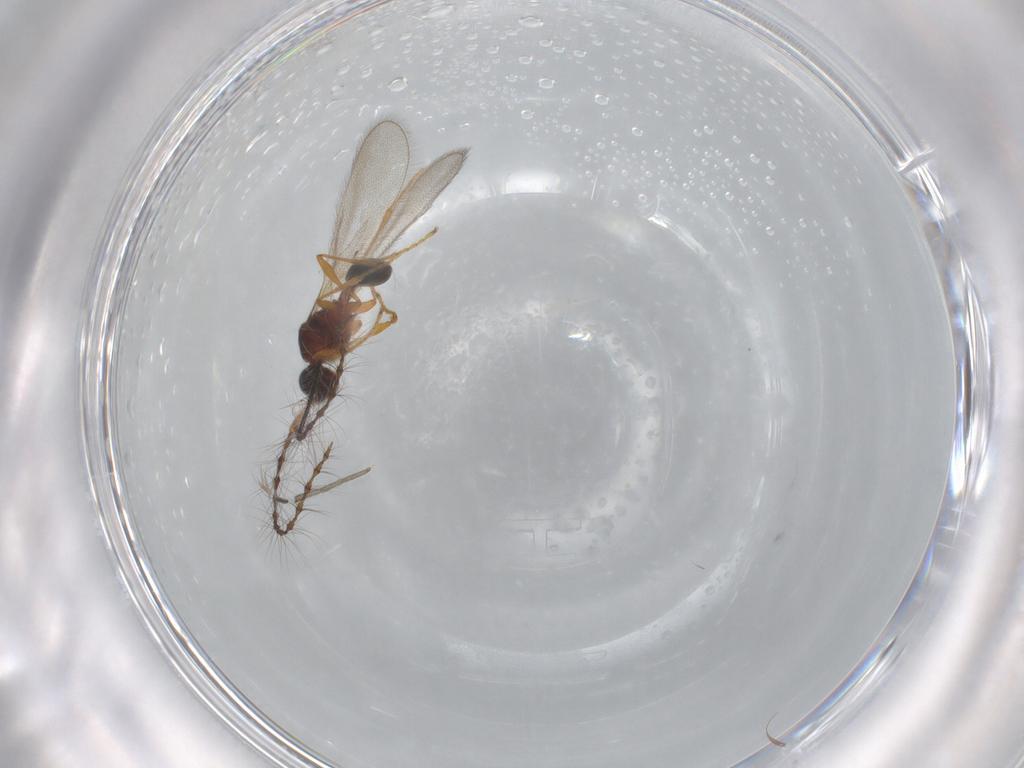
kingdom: Animalia
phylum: Arthropoda
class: Insecta
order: Hymenoptera
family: Diapriidae
